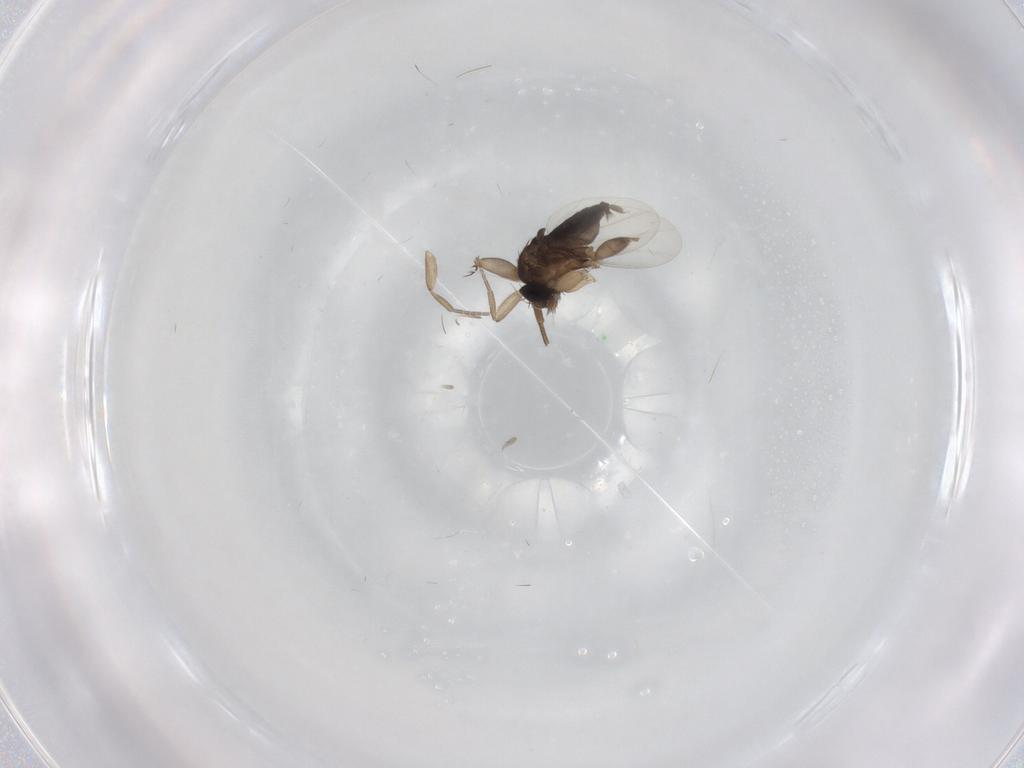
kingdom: Animalia
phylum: Arthropoda
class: Insecta
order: Diptera
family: Phoridae
